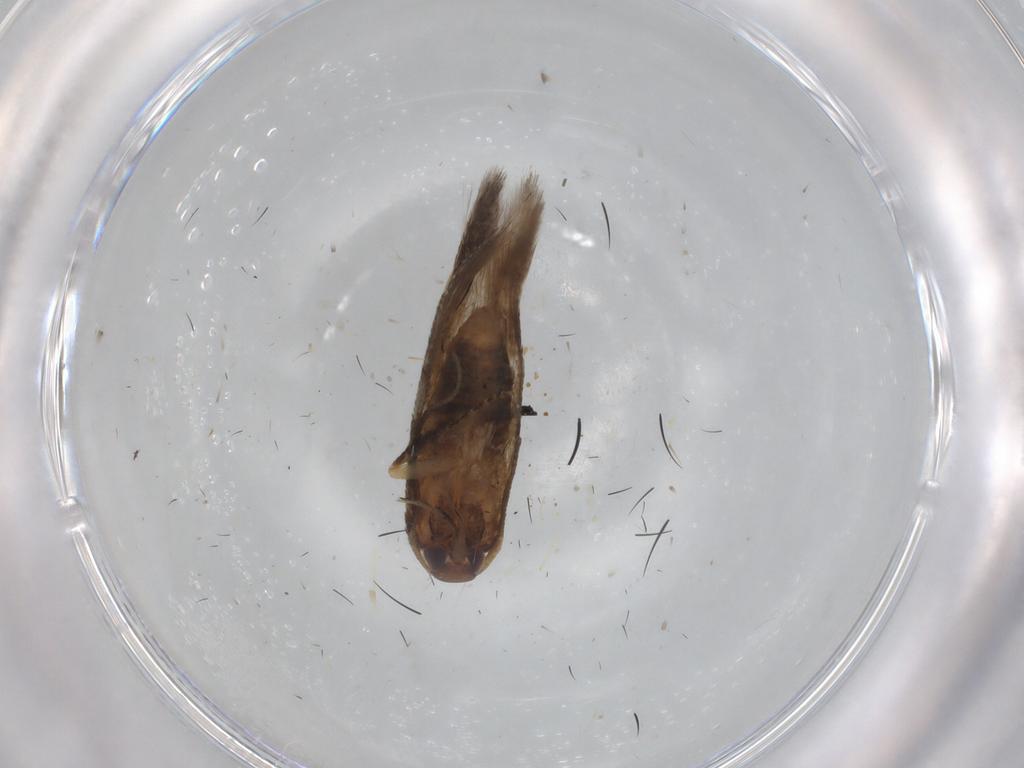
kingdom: Animalia
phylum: Arthropoda
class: Insecta
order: Lepidoptera
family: Cosmopterigidae
